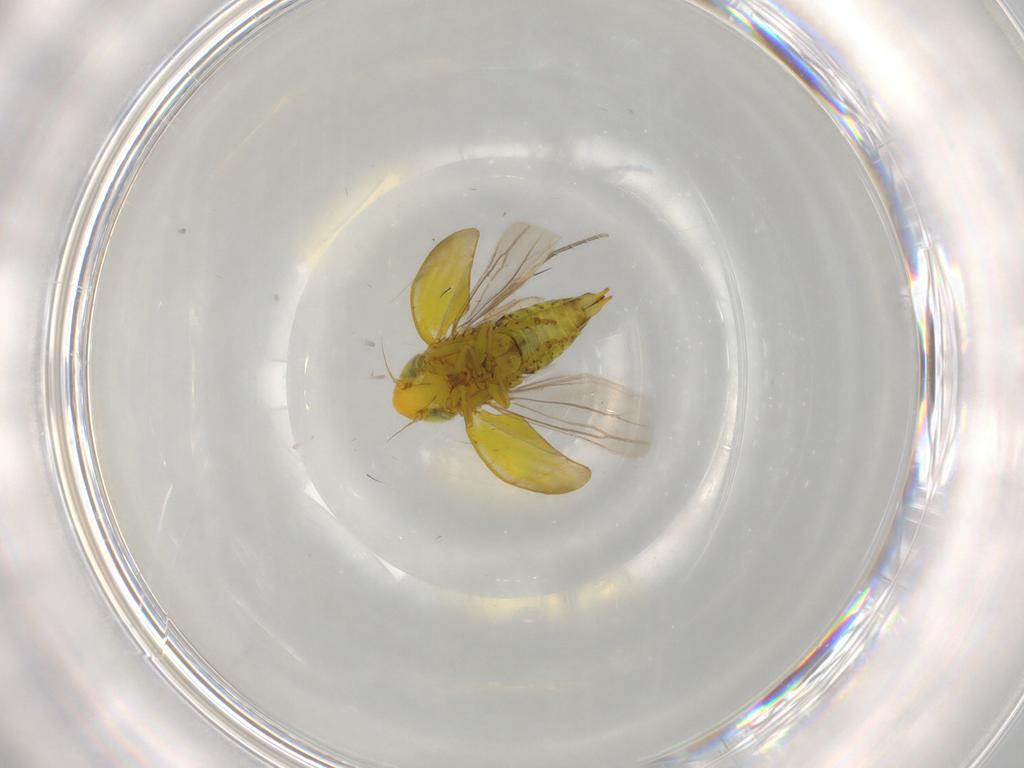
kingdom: Animalia
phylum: Arthropoda
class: Insecta
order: Hemiptera
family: Cicadellidae
